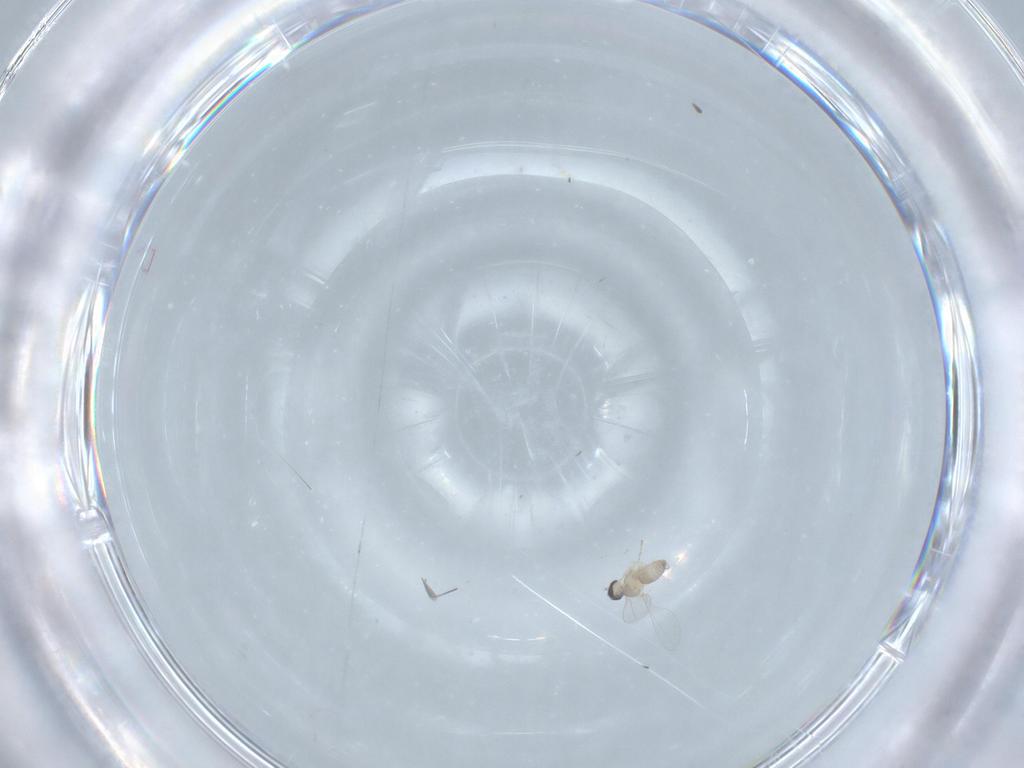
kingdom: Animalia
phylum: Arthropoda
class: Insecta
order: Diptera
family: Cecidomyiidae
